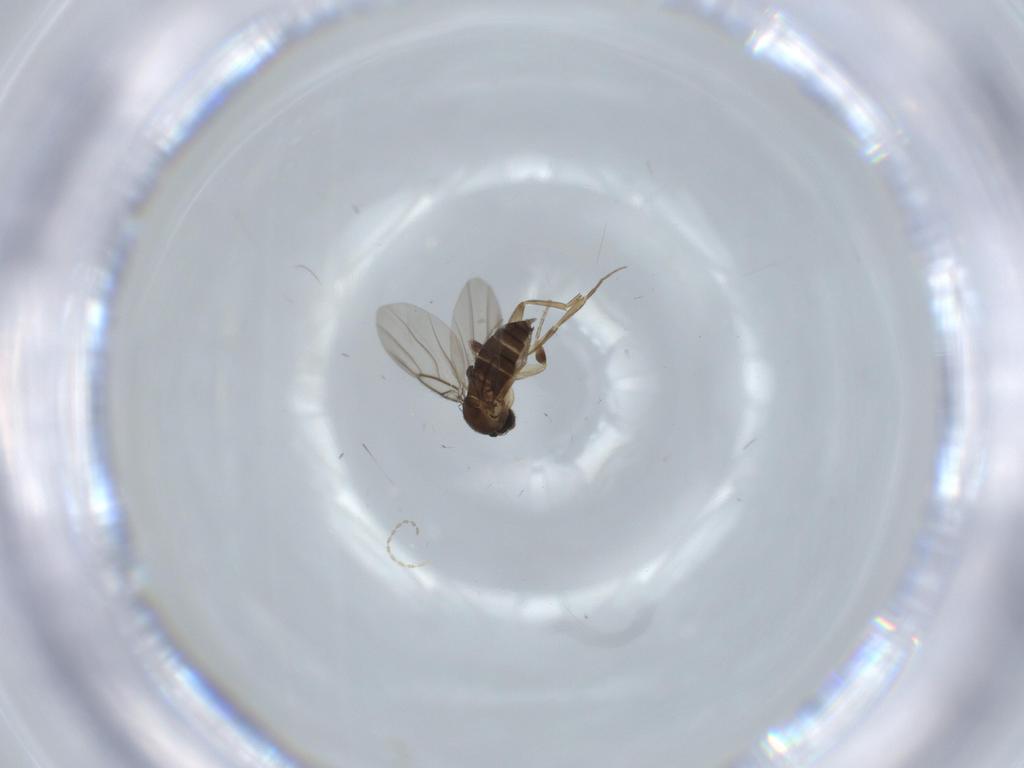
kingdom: Animalia
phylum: Arthropoda
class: Insecta
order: Diptera
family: Phoridae
